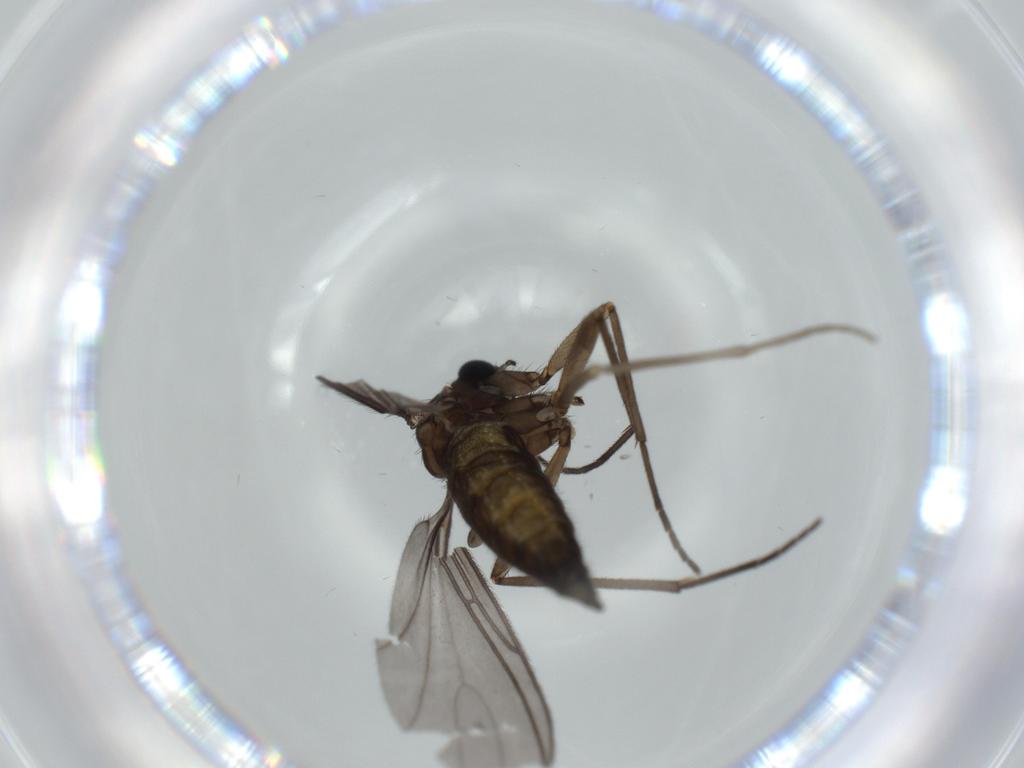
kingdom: Animalia
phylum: Arthropoda
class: Insecta
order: Diptera
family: Sciaridae
